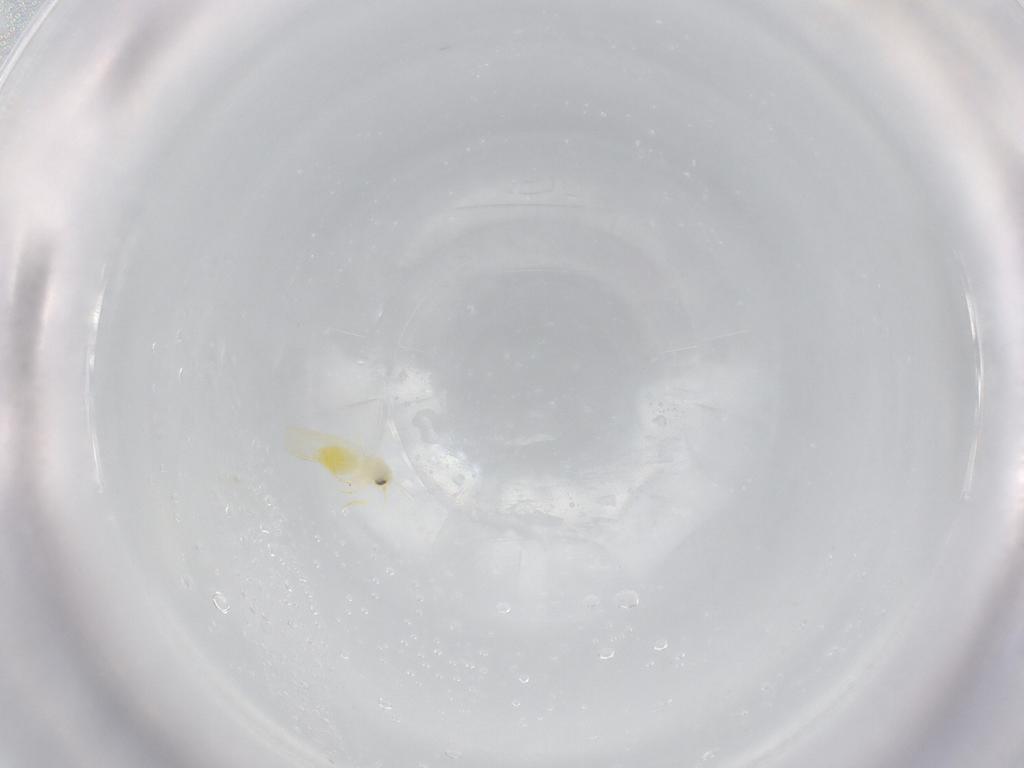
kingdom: Animalia
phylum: Arthropoda
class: Insecta
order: Hemiptera
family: Aleyrodidae
